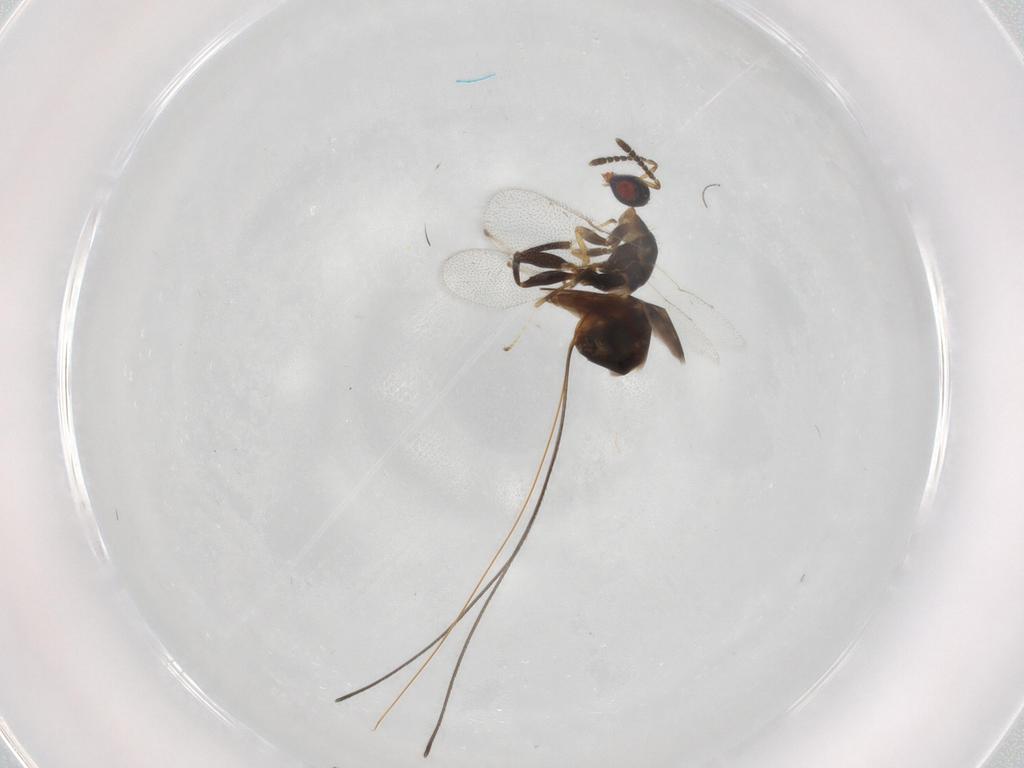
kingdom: Animalia
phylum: Arthropoda
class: Insecta
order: Hymenoptera
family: Torymidae
